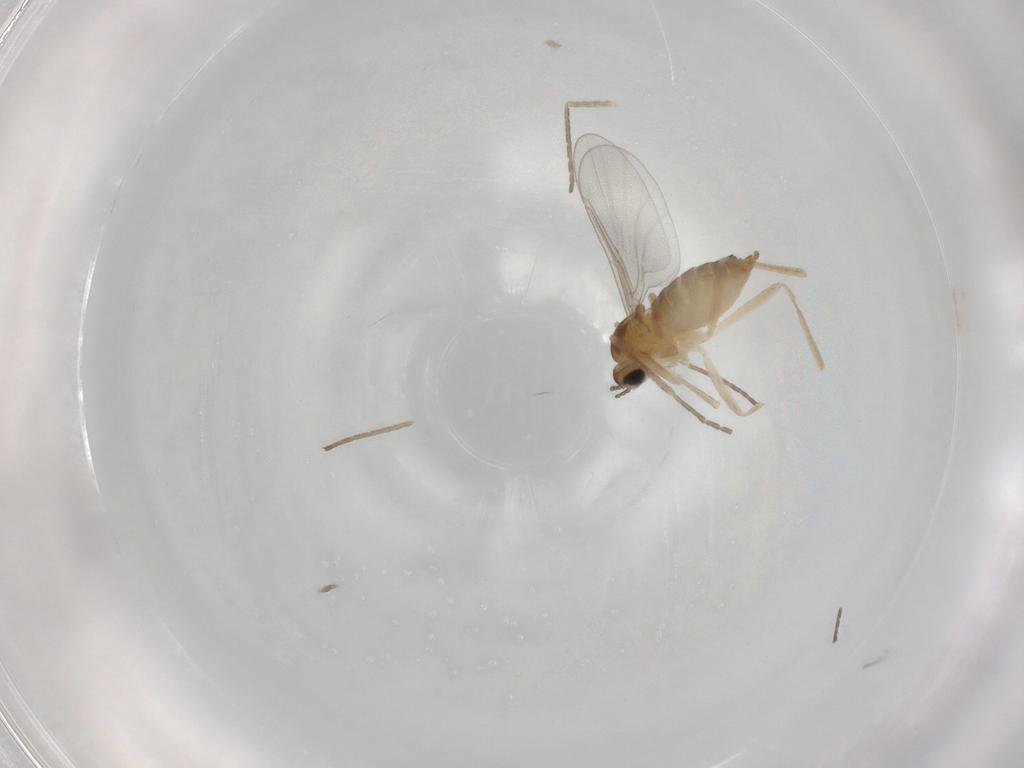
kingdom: Animalia
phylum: Arthropoda
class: Insecta
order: Diptera
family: Cecidomyiidae
